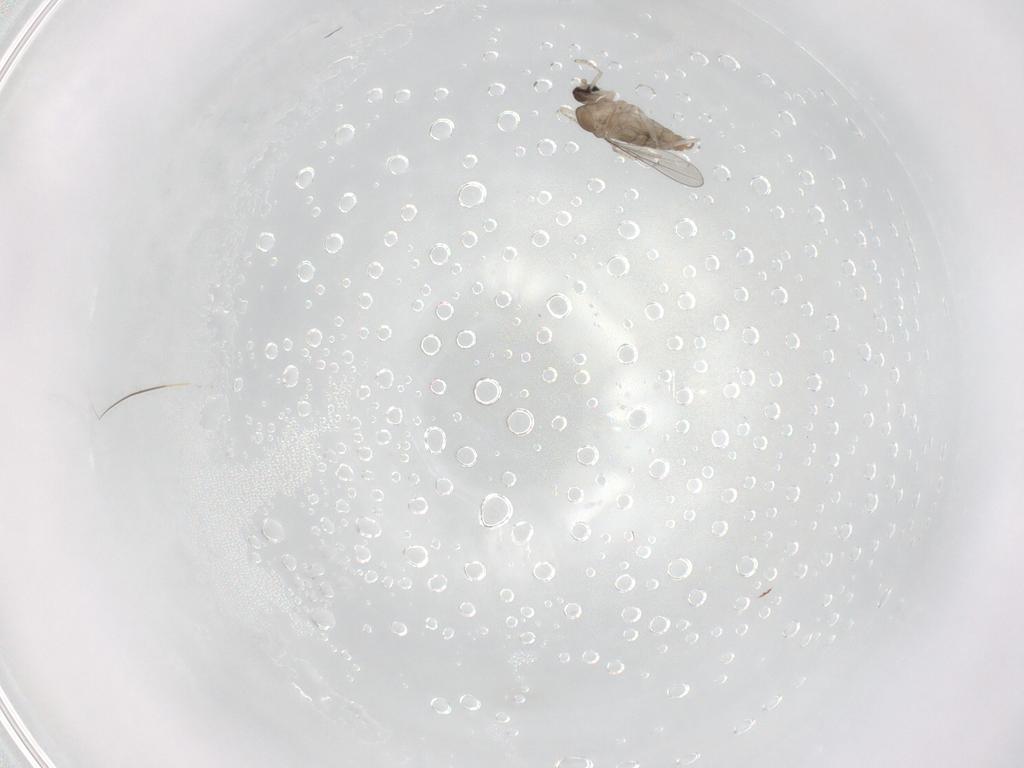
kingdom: Animalia
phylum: Arthropoda
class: Insecta
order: Diptera
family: Cecidomyiidae
